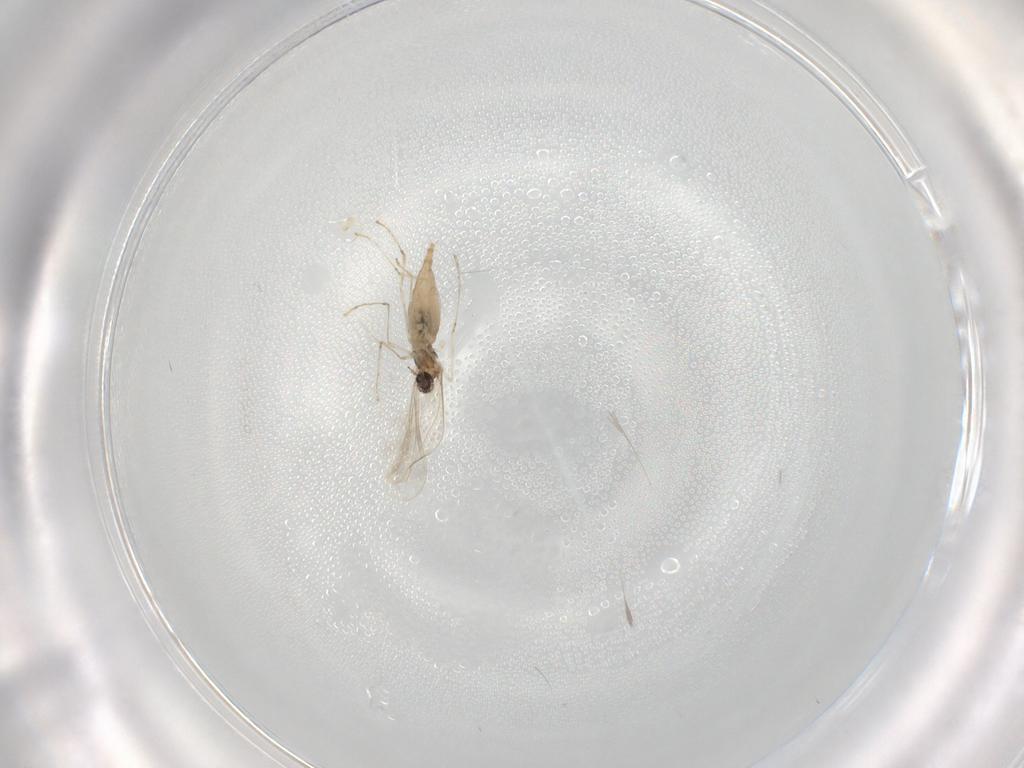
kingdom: Animalia
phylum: Arthropoda
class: Insecta
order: Diptera
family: Cecidomyiidae
